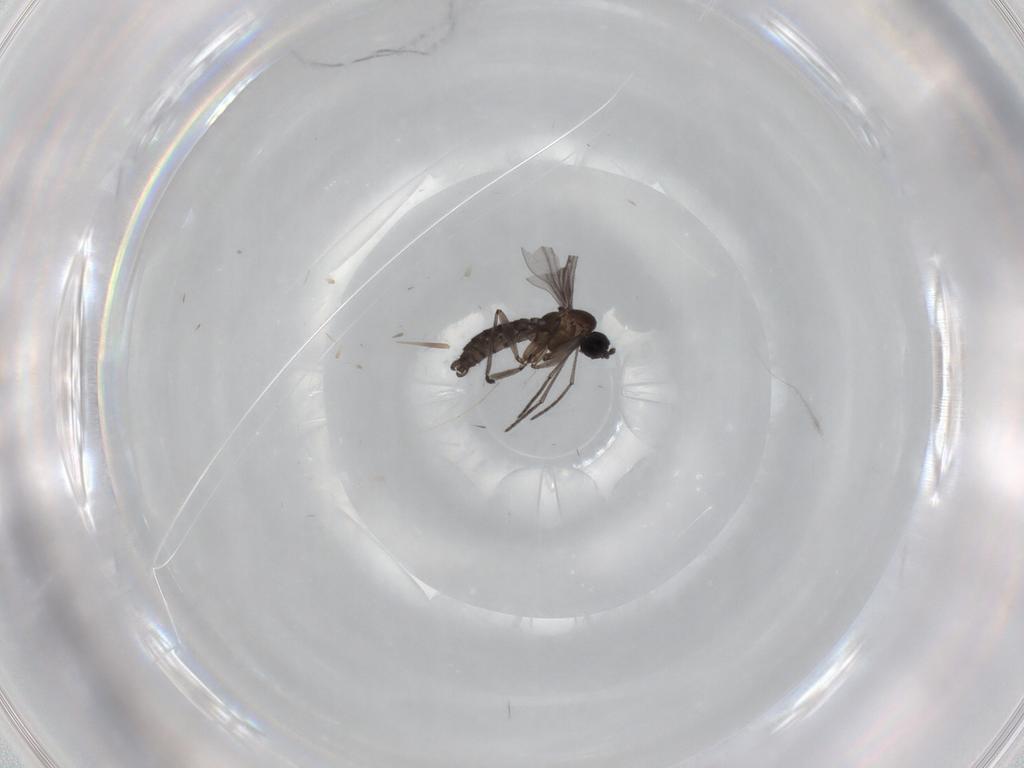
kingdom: Animalia
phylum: Arthropoda
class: Insecta
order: Diptera
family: Sciaridae
